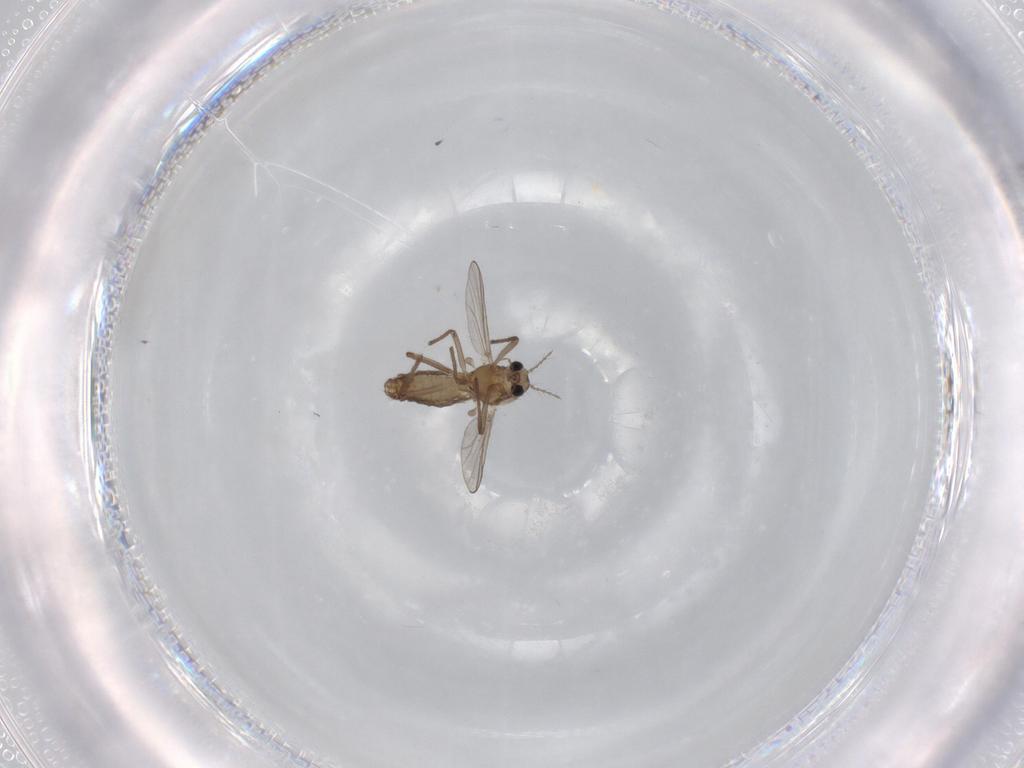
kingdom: Animalia
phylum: Arthropoda
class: Insecta
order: Diptera
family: Chironomidae
